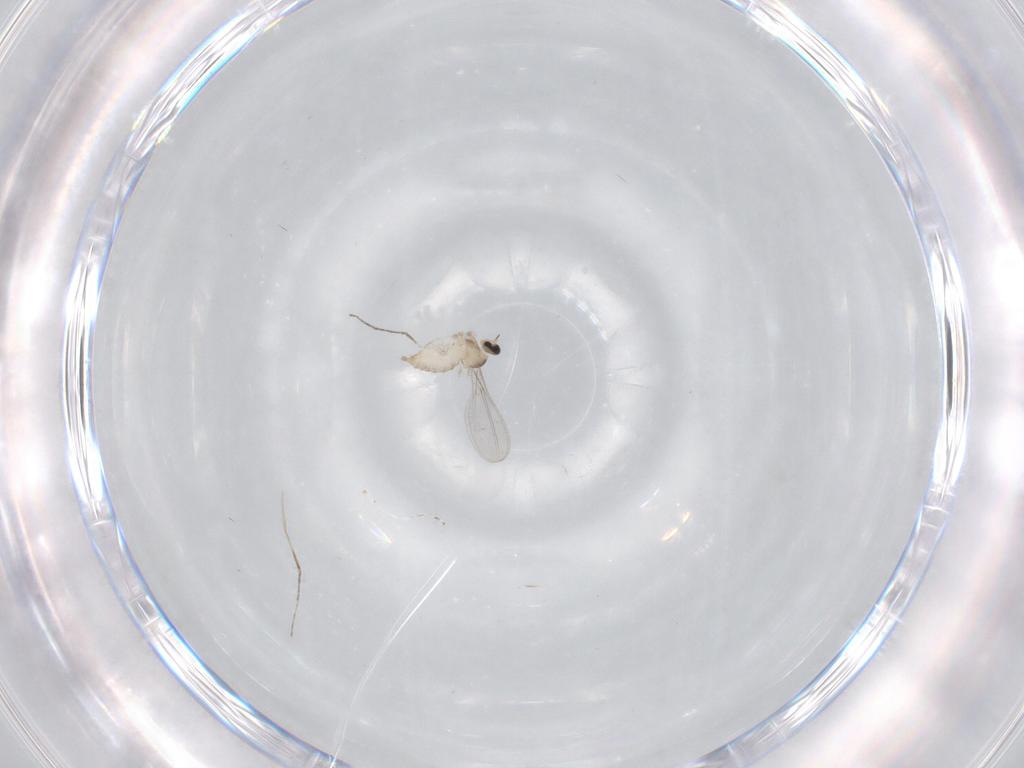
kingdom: Animalia
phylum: Arthropoda
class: Insecta
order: Diptera
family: Cecidomyiidae
